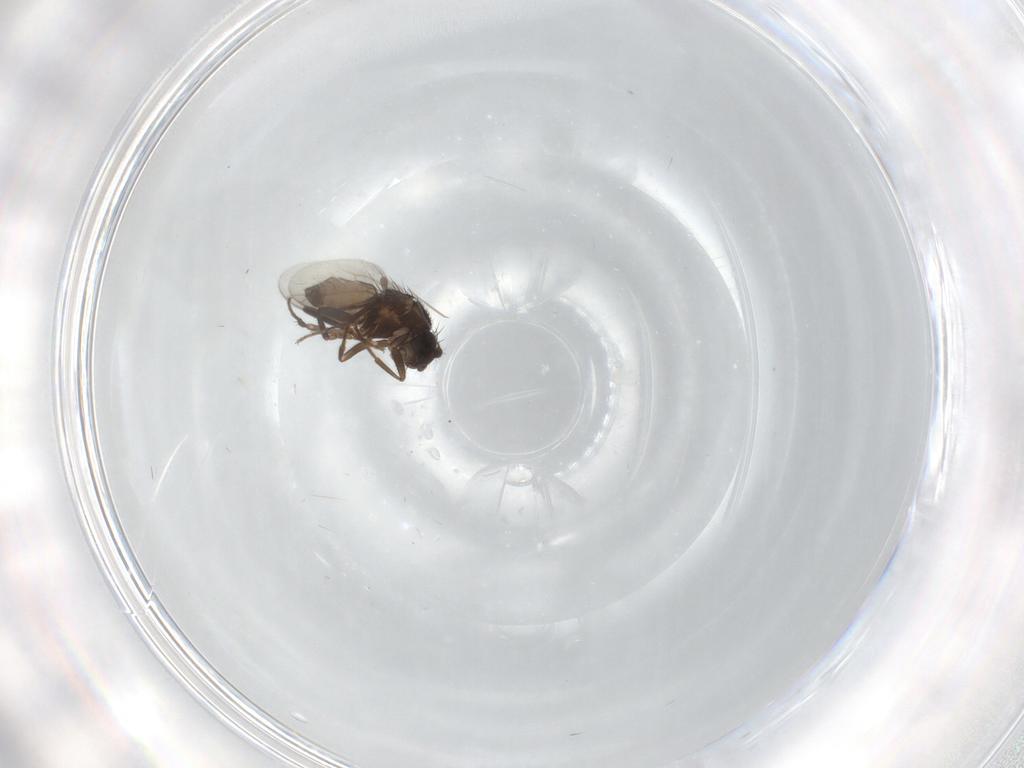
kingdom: Animalia
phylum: Arthropoda
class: Insecta
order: Diptera
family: Sphaeroceridae
